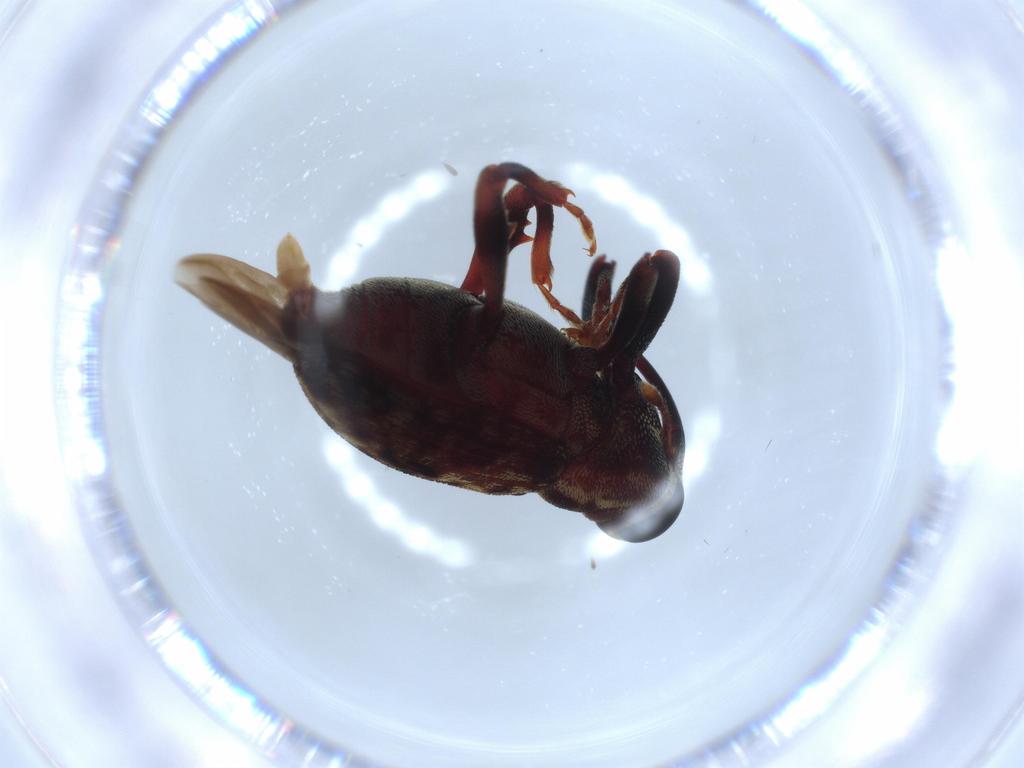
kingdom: Animalia
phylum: Arthropoda
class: Insecta
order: Coleoptera
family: Curculionidae
